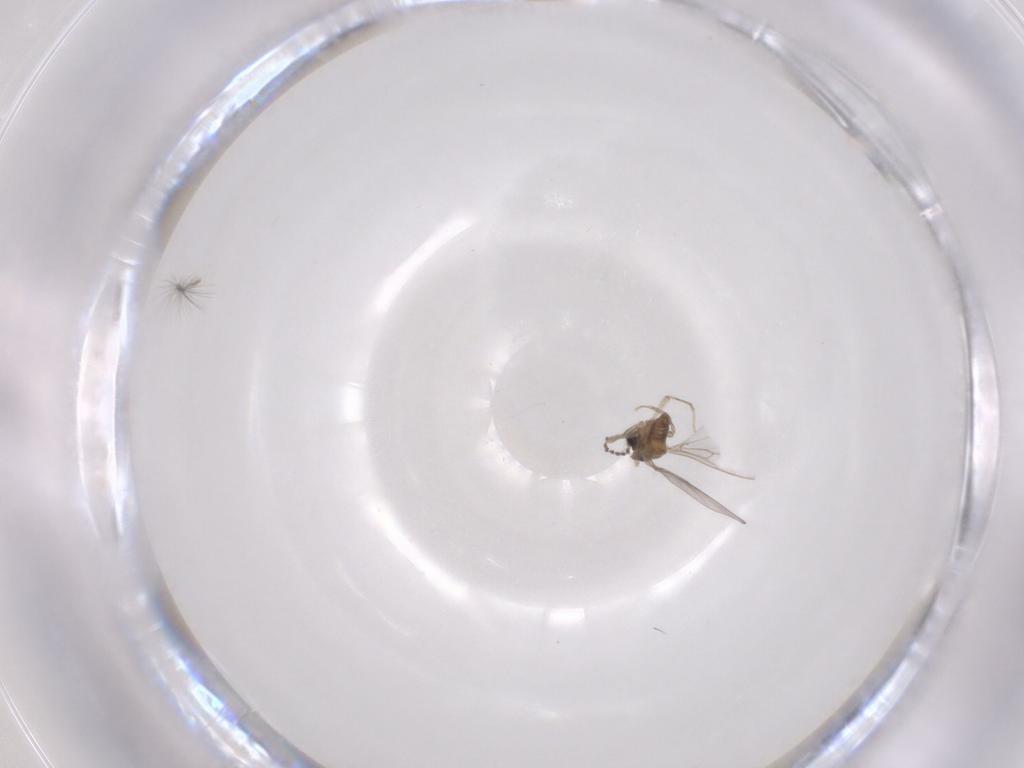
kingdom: Animalia
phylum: Arthropoda
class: Insecta
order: Diptera
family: Cecidomyiidae
